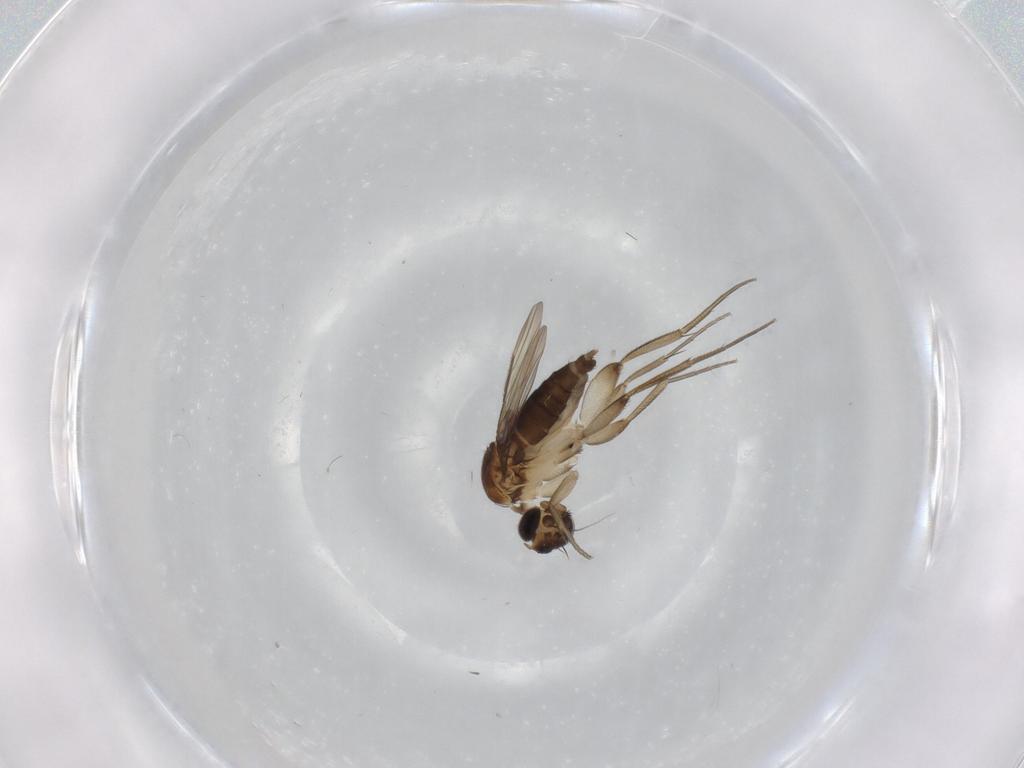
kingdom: Animalia
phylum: Arthropoda
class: Insecta
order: Diptera
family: Phoridae
